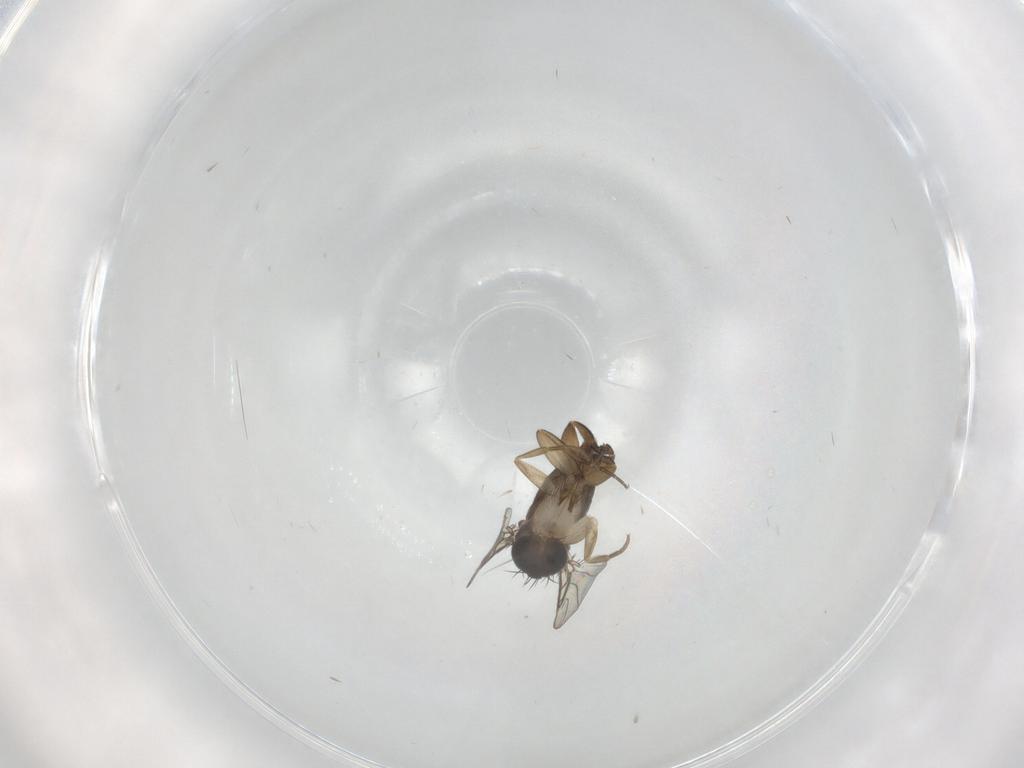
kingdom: Animalia
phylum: Arthropoda
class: Insecta
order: Diptera
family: Phoridae
